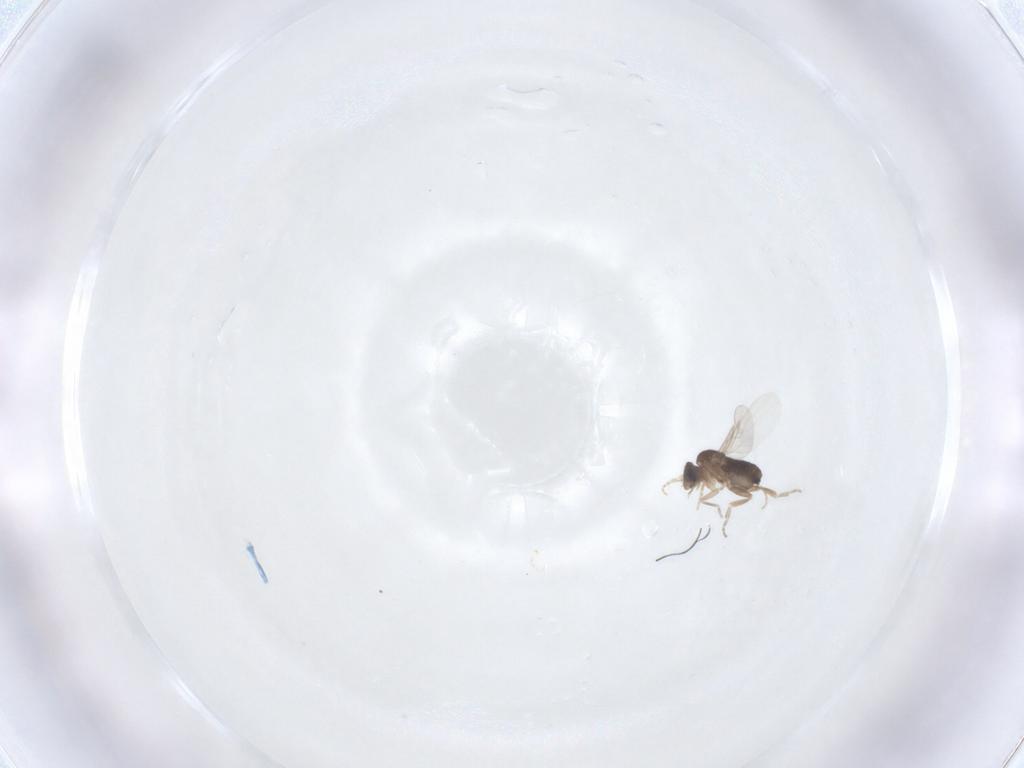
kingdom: Animalia
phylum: Arthropoda
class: Insecta
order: Diptera
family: Phoridae
